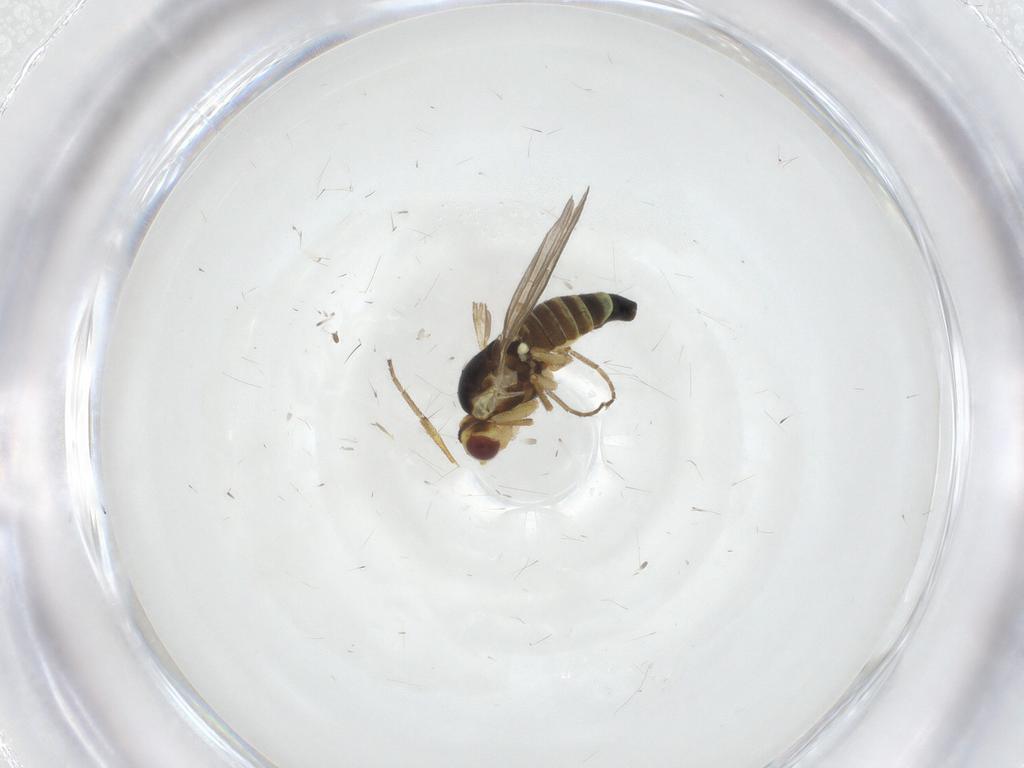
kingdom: Animalia
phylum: Arthropoda
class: Insecta
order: Diptera
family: Agromyzidae
